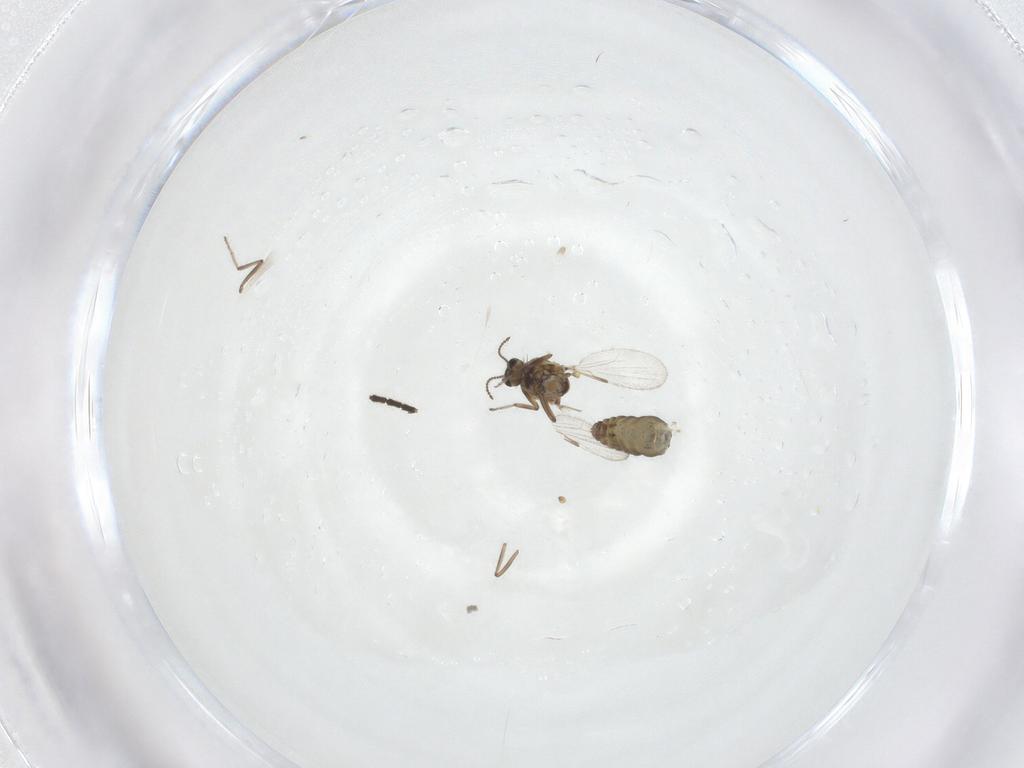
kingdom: Animalia
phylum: Arthropoda
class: Insecta
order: Diptera
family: Ceratopogonidae
